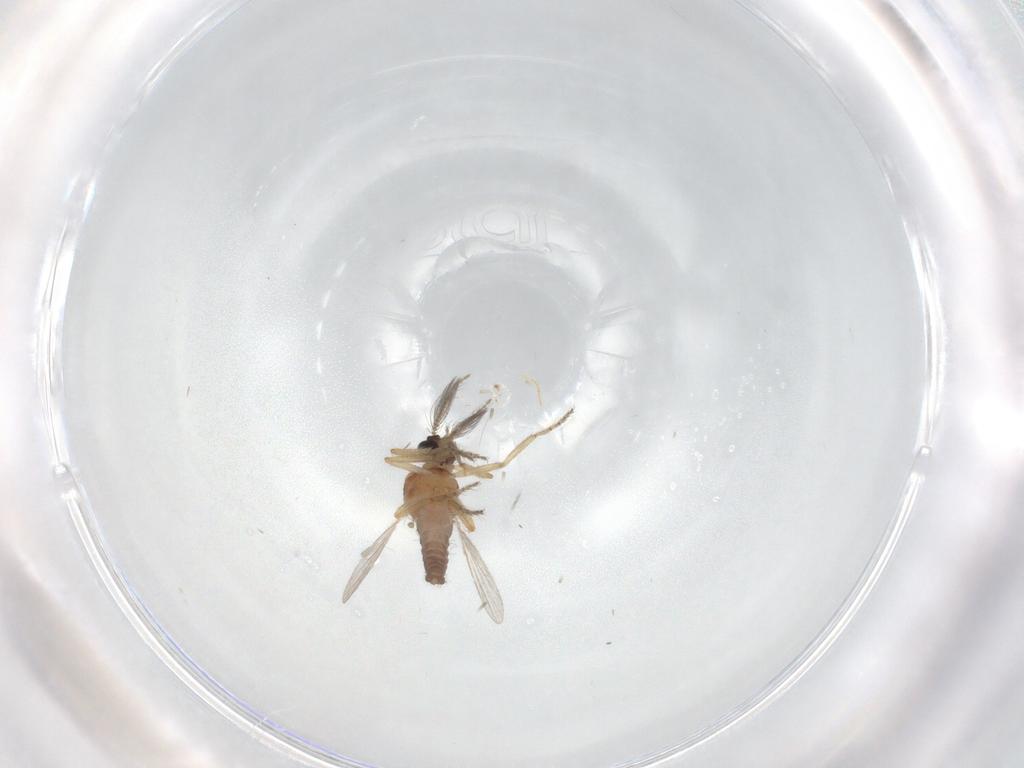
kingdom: Animalia
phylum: Arthropoda
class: Insecta
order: Diptera
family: Ceratopogonidae
